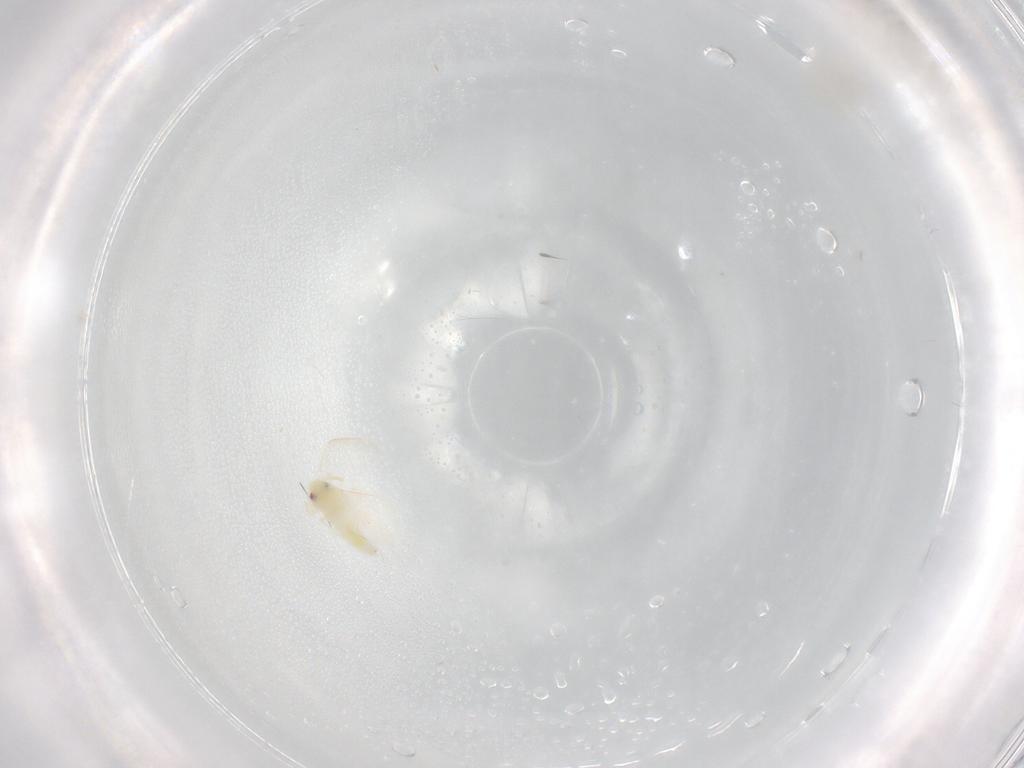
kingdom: Animalia
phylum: Arthropoda
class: Insecta
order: Hemiptera
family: Aleyrodidae
